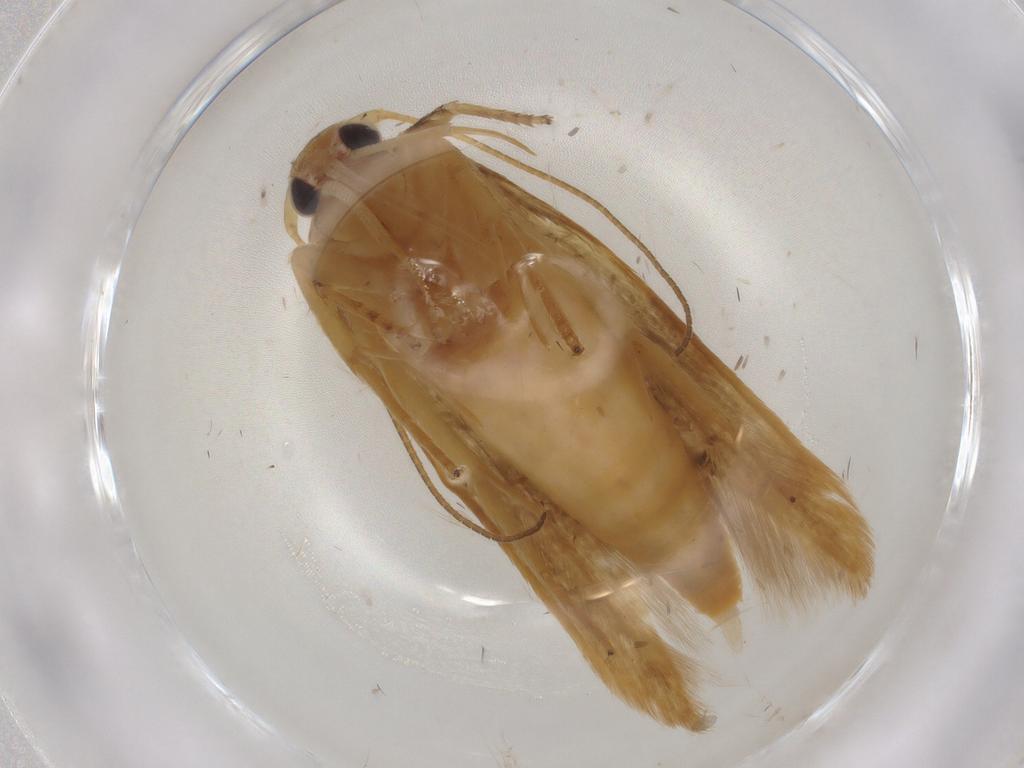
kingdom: Animalia
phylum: Arthropoda
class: Insecta
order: Lepidoptera
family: Stathmopodidae
